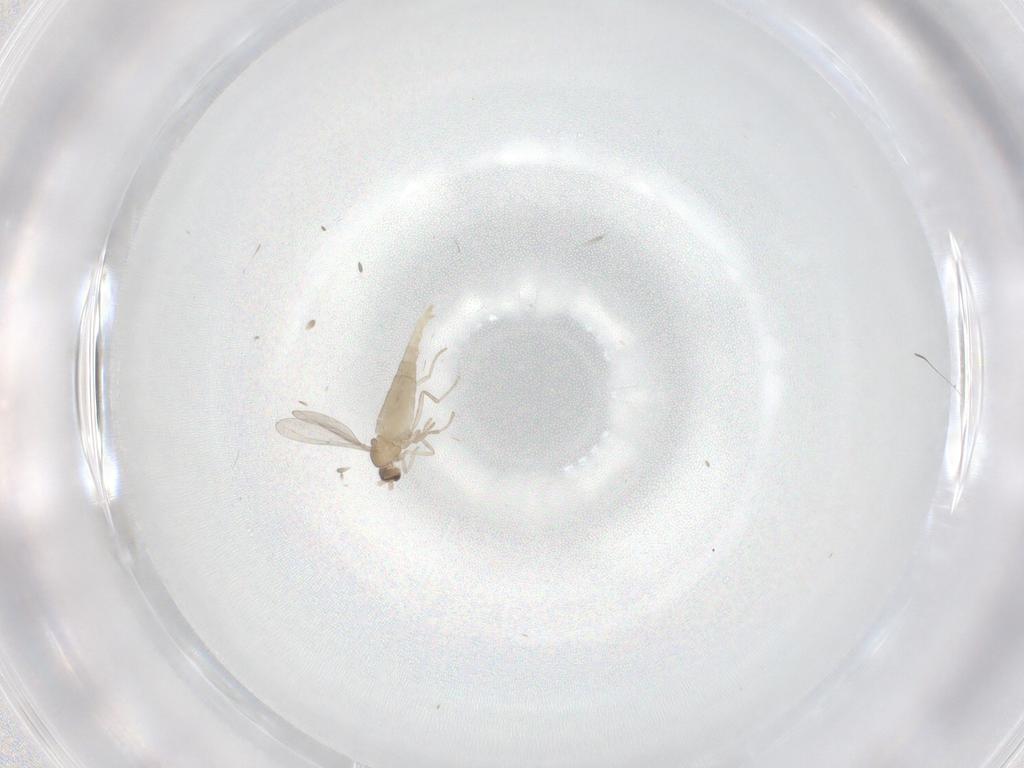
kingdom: Animalia
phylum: Arthropoda
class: Insecta
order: Diptera
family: Cecidomyiidae
